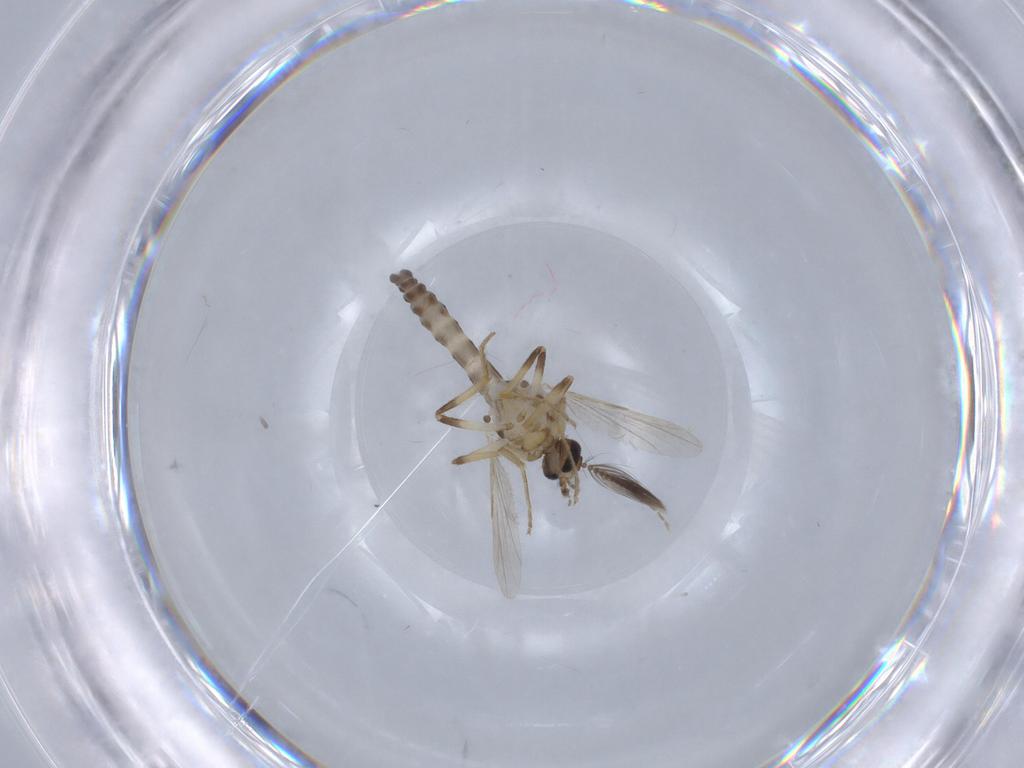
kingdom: Animalia
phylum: Arthropoda
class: Insecta
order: Diptera
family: Ceratopogonidae
